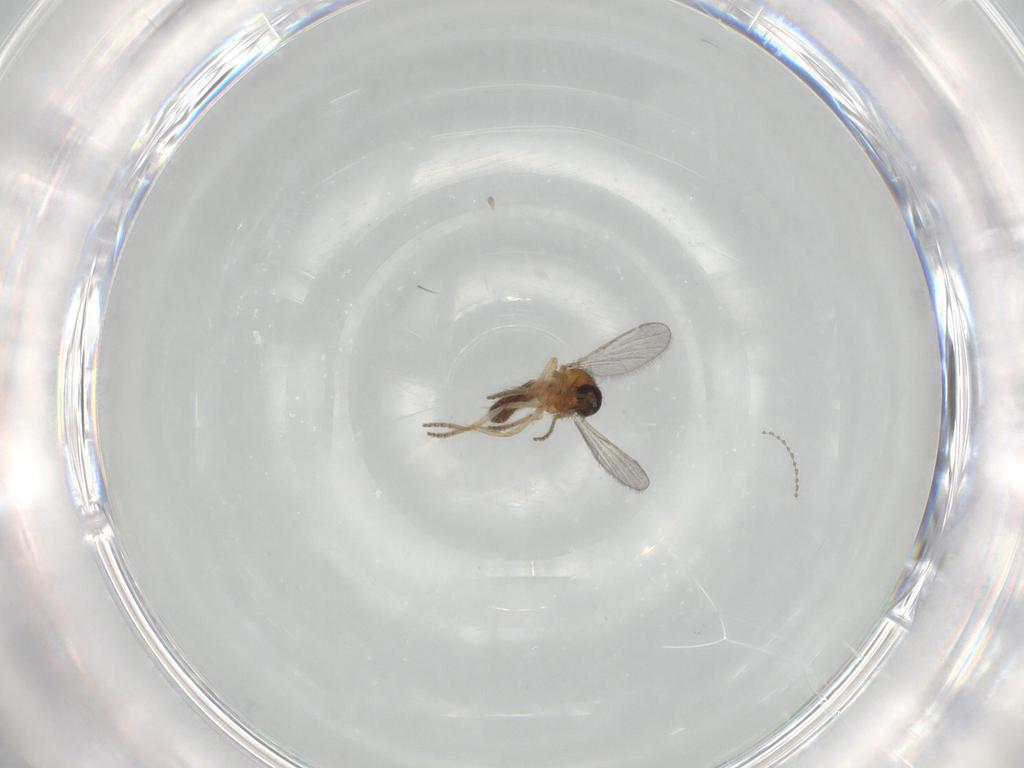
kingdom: Animalia
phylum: Arthropoda
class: Insecta
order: Diptera
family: Ceratopogonidae
